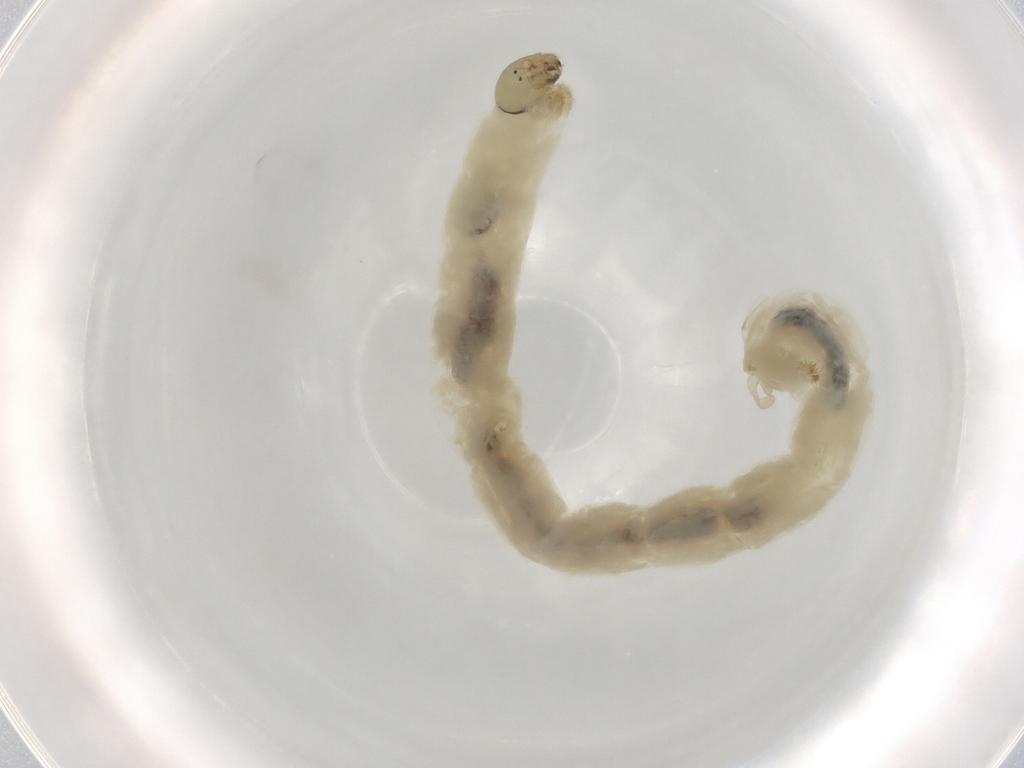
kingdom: Animalia
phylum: Arthropoda
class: Insecta
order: Diptera
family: Chironomidae
